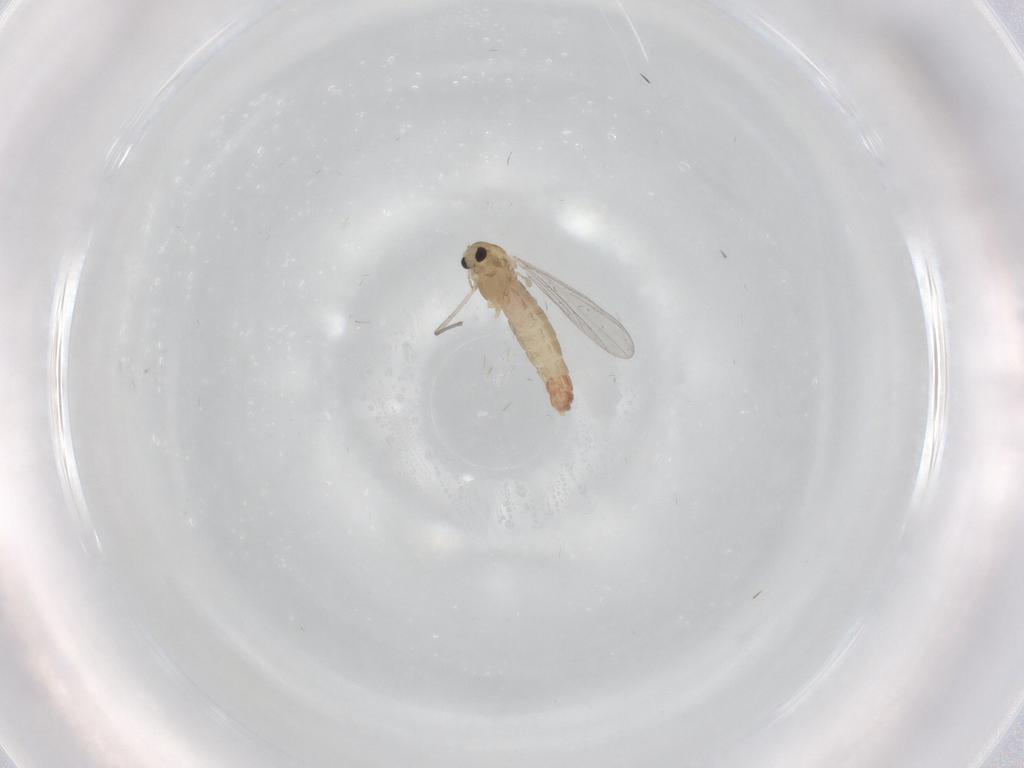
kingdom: Animalia
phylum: Arthropoda
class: Insecta
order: Diptera
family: Chironomidae
